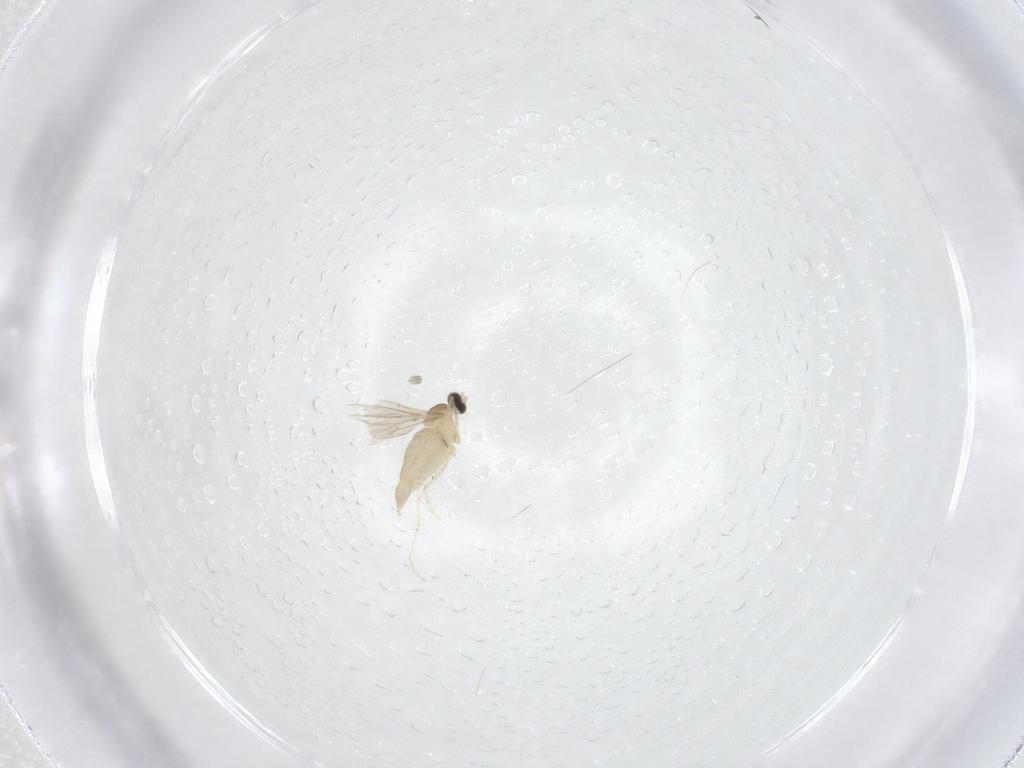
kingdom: Animalia
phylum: Arthropoda
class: Insecta
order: Diptera
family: Cecidomyiidae
